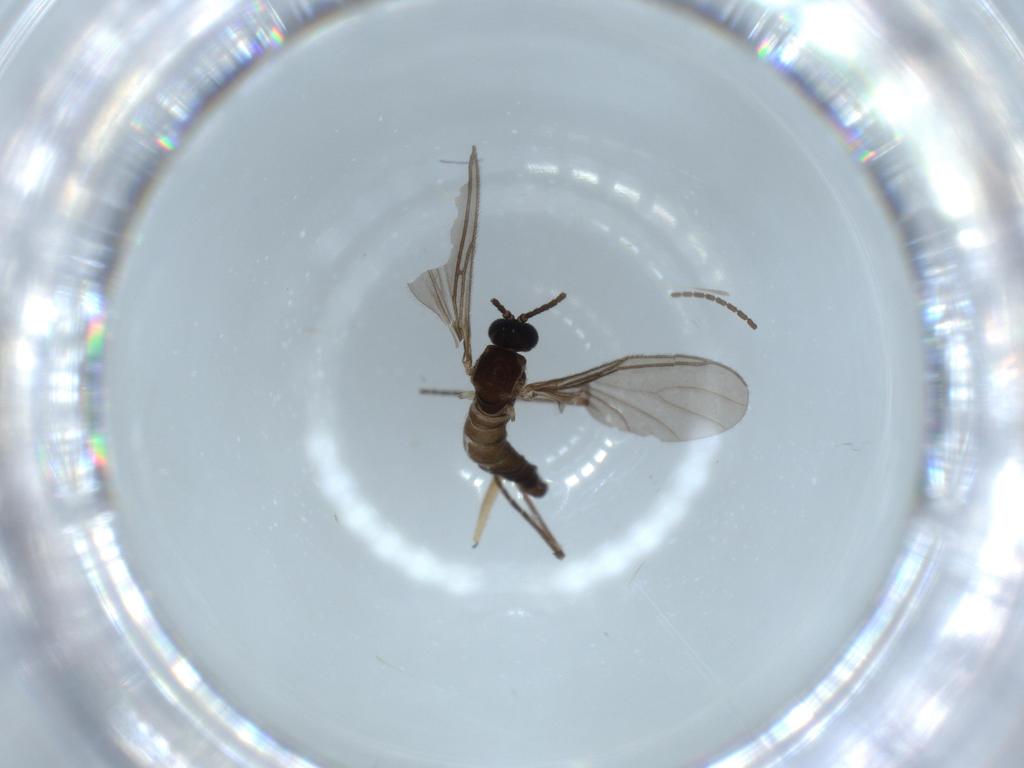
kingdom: Animalia
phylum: Arthropoda
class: Insecta
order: Diptera
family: Sciaridae
